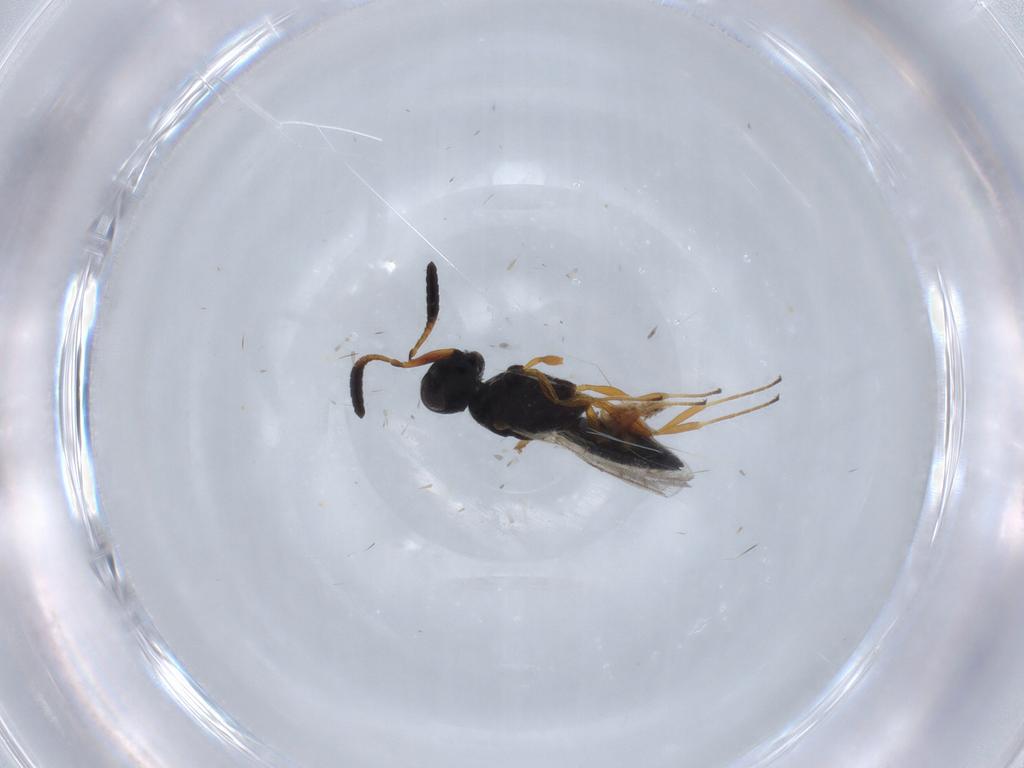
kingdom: Animalia
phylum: Arthropoda
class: Insecta
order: Hymenoptera
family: Scelionidae
